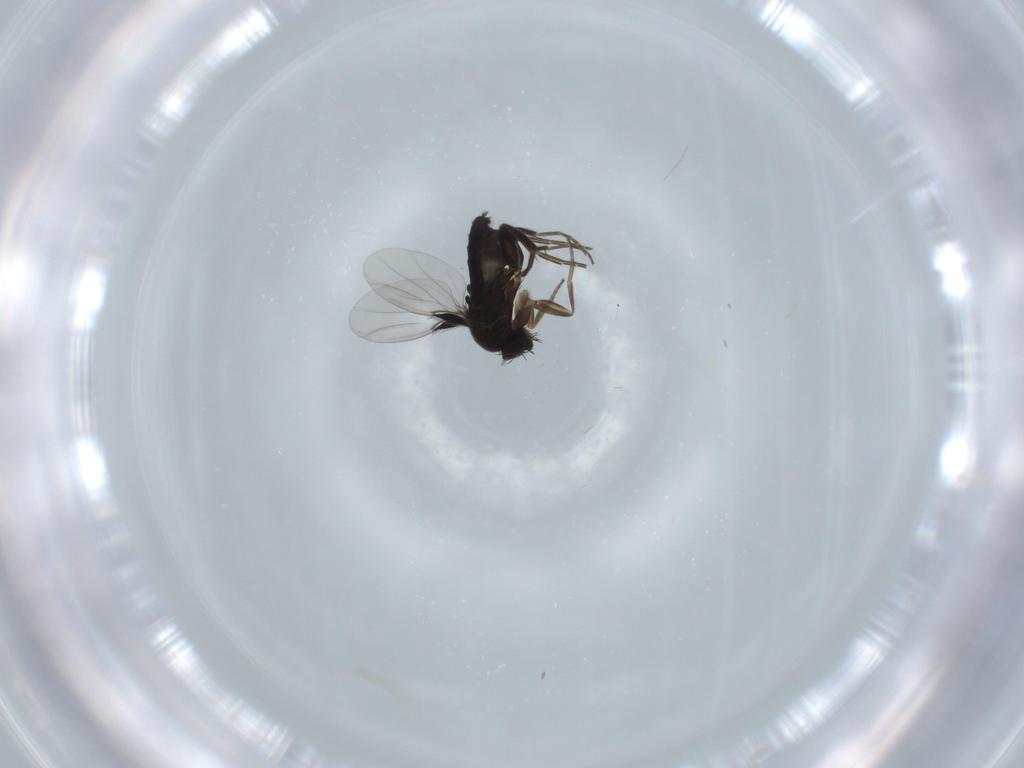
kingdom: Animalia
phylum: Arthropoda
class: Insecta
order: Diptera
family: Phoridae
